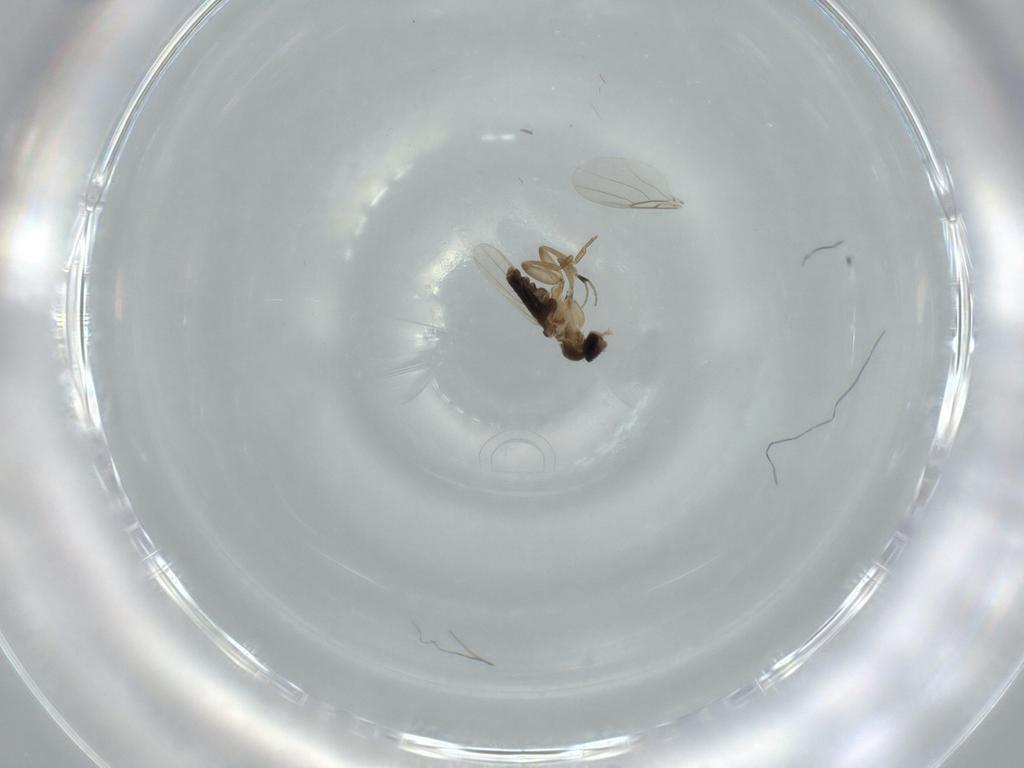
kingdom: Animalia
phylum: Arthropoda
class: Insecta
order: Diptera
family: Phoridae
